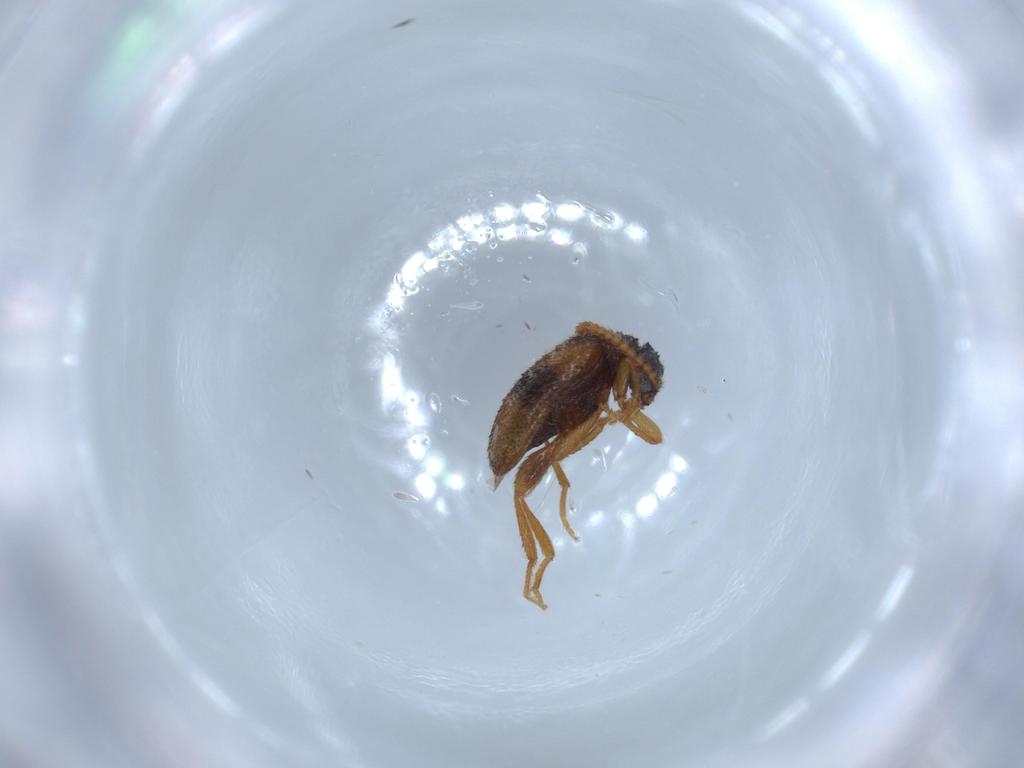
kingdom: Animalia
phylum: Arthropoda
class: Insecta
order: Coleoptera
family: Aderidae
